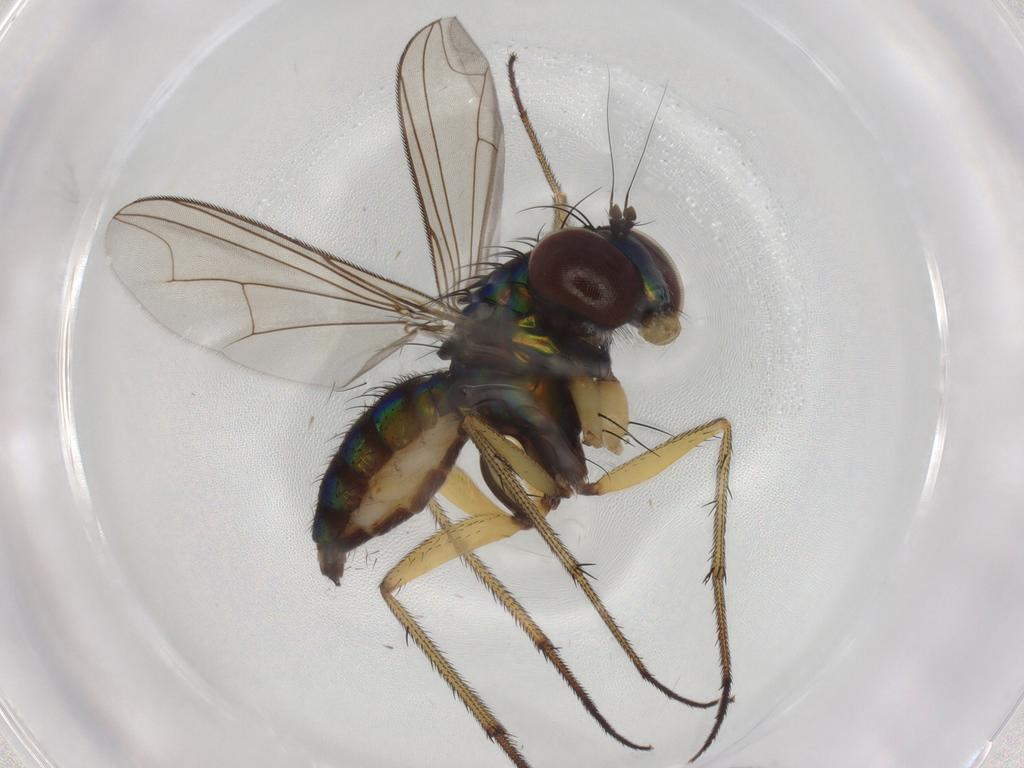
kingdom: Animalia
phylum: Arthropoda
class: Insecta
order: Diptera
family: Dolichopodidae
